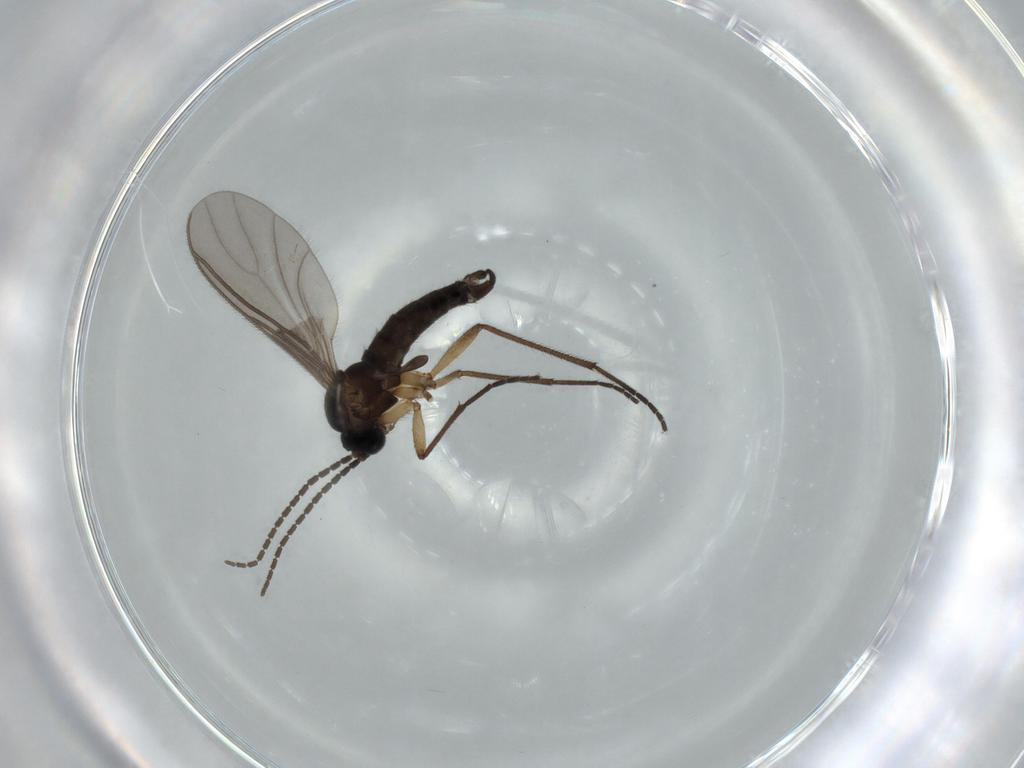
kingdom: Animalia
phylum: Arthropoda
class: Insecta
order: Diptera
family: Sciaridae
